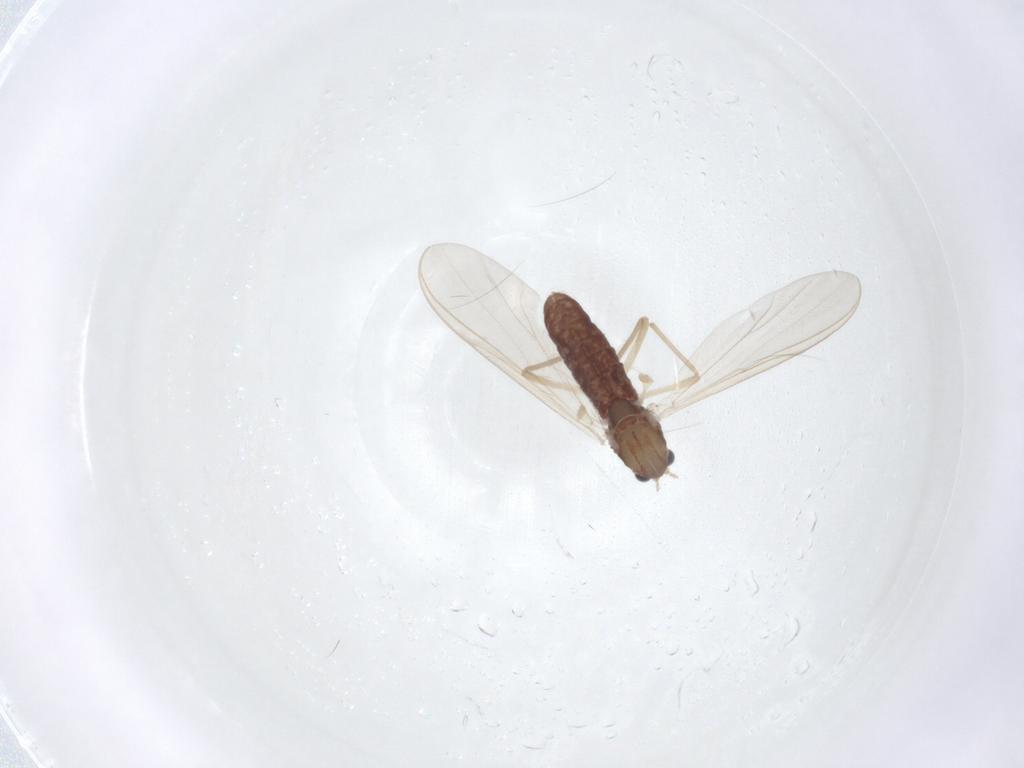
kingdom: Animalia
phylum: Arthropoda
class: Insecta
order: Diptera
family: Chironomidae
